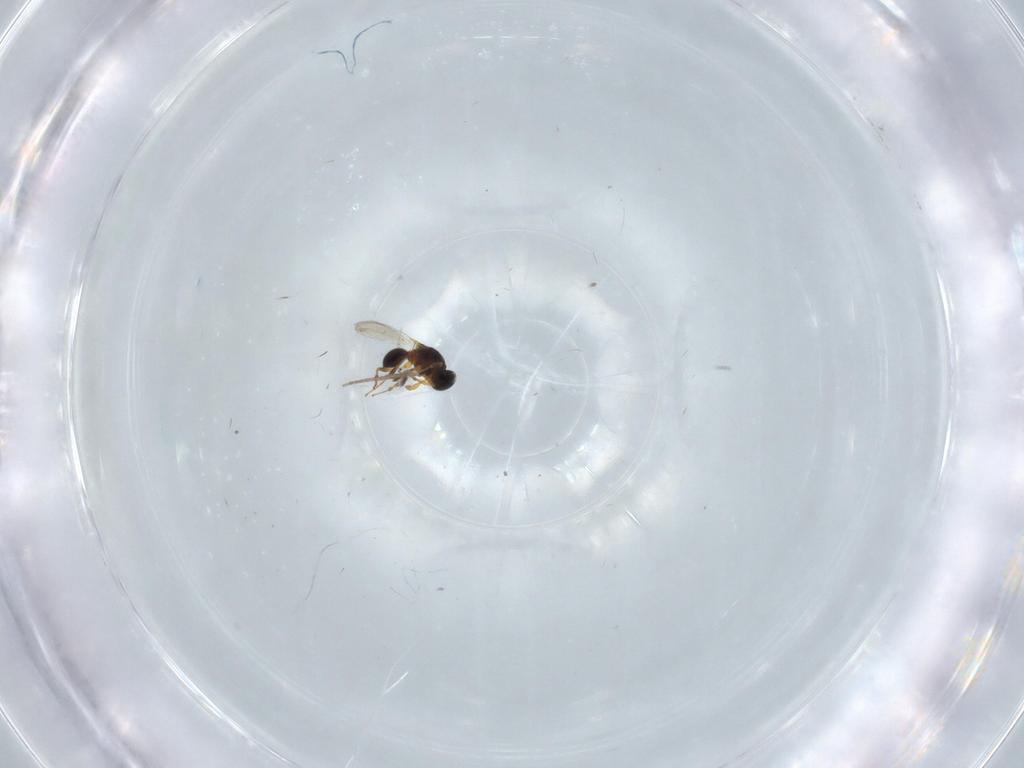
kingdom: Animalia
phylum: Arthropoda
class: Insecta
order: Hymenoptera
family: Platygastridae
